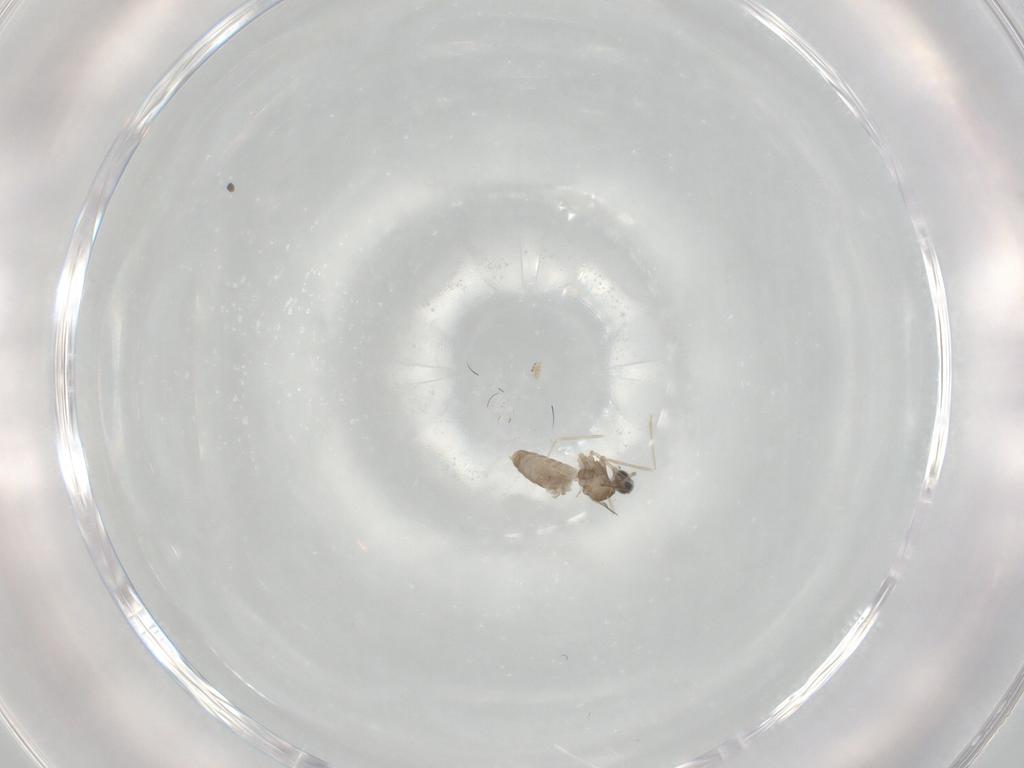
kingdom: Animalia
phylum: Arthropoda
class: Insecta
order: Diptera
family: Cecidomyiidae
